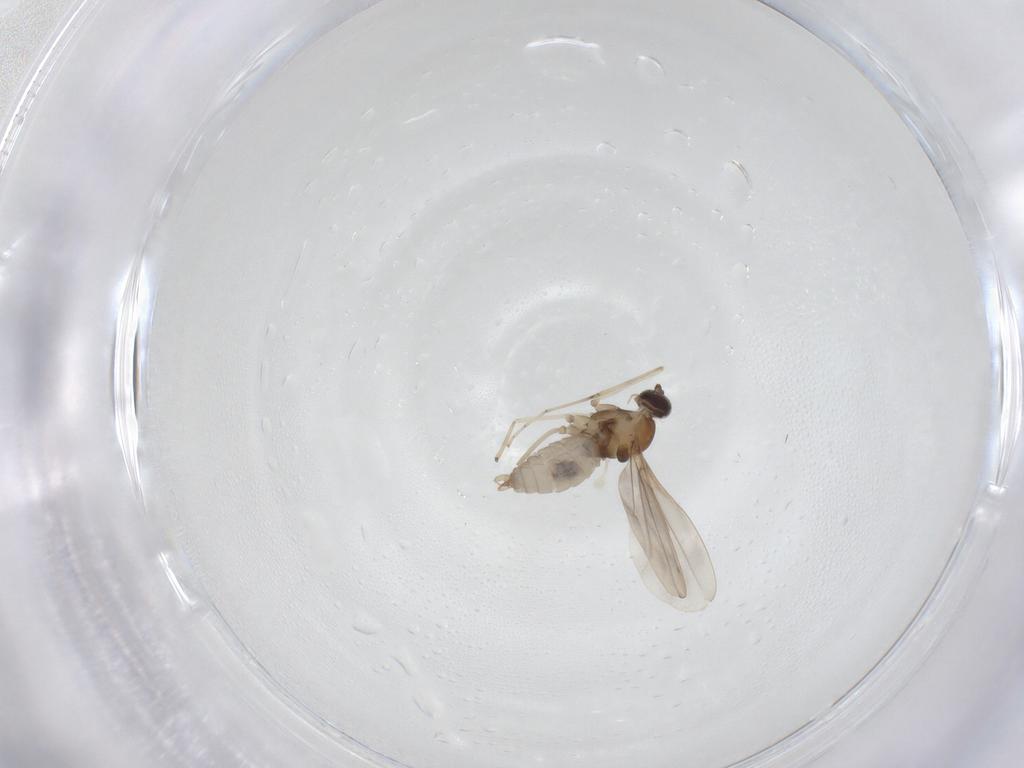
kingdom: Animalia
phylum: Arthropoda
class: Insecta
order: Diptera
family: Cecidomyiidae
